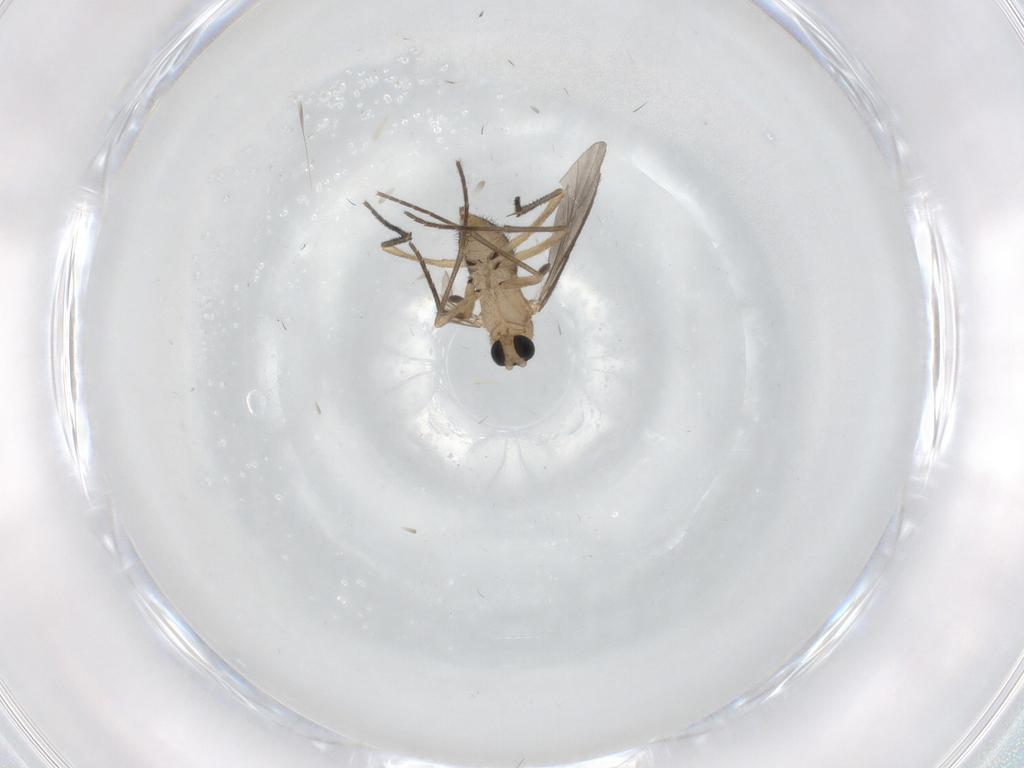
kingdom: Animalia
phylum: Arthropoda
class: Insecta
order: Diptera
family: Sciaridae
